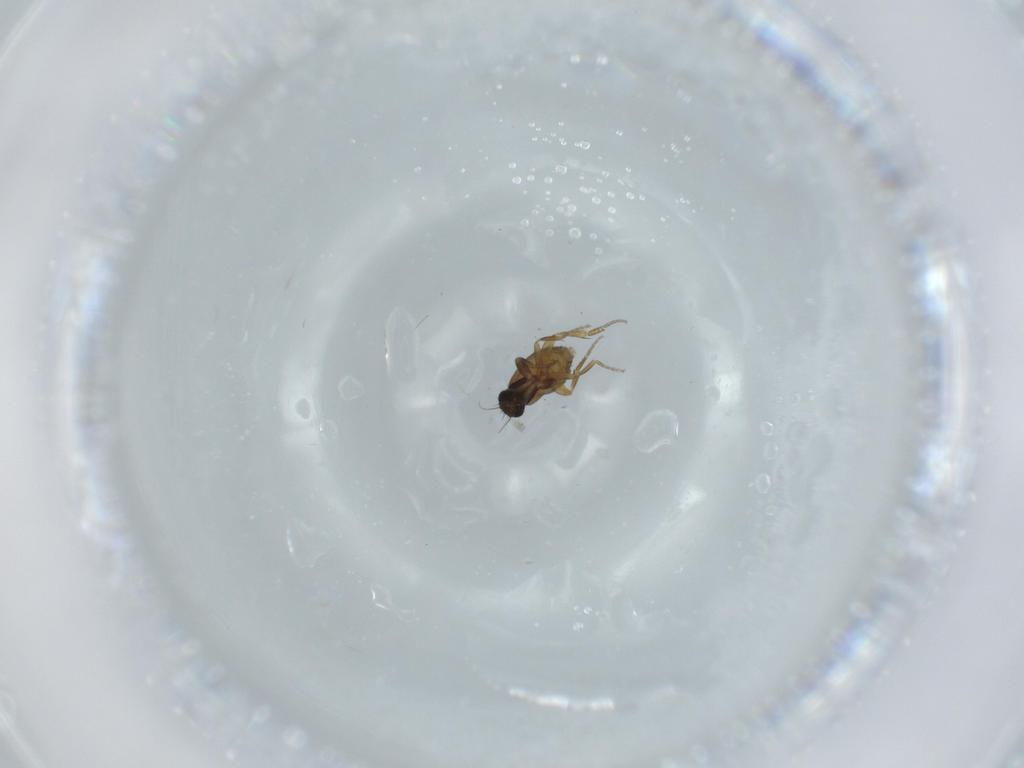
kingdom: Animalia
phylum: Arthropoda
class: Insecta
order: Diptera
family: Phoridae
